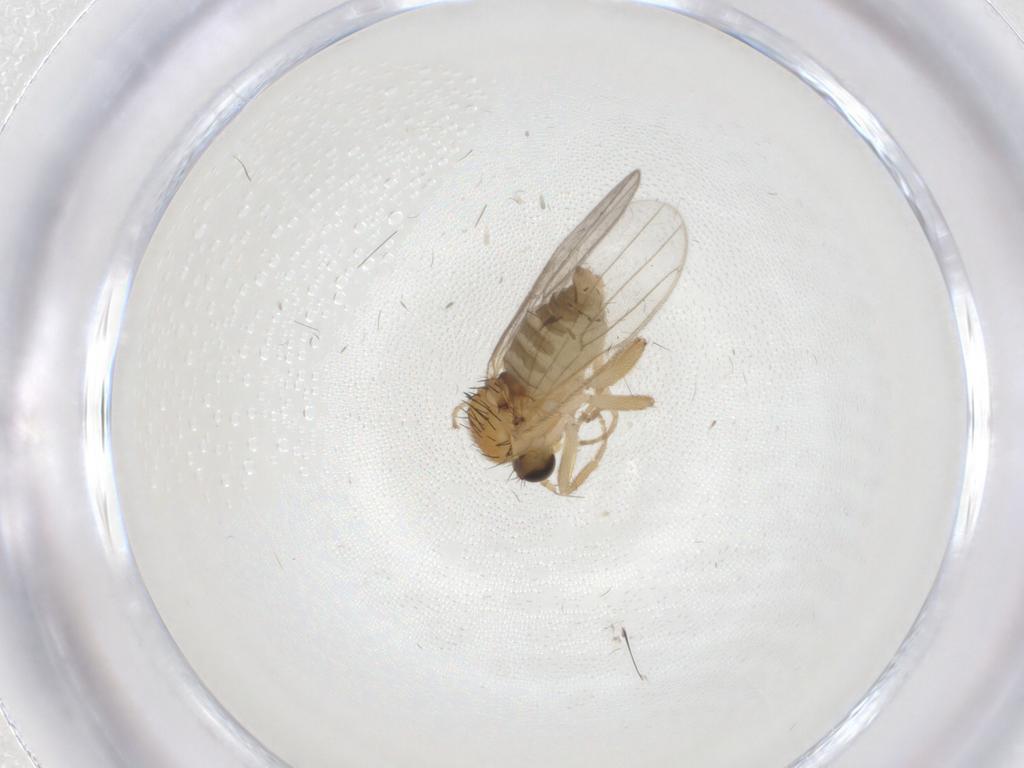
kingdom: Animalia
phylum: Arthropoda
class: Insecta
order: Diptera
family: Hybotidae
